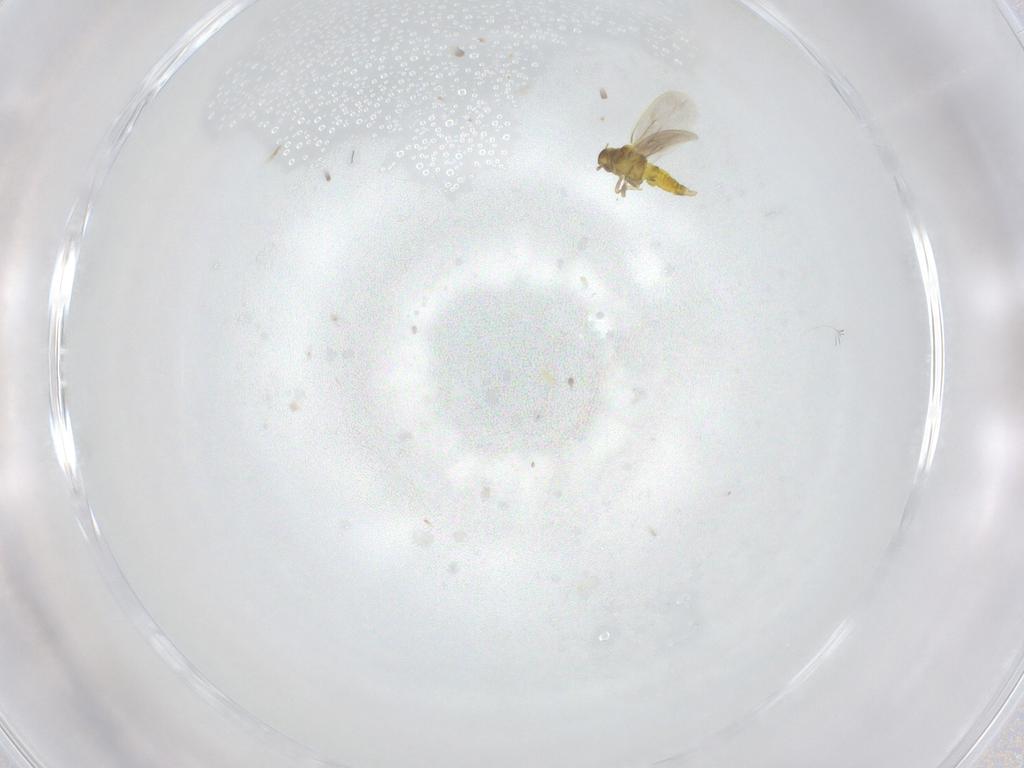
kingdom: Animalia
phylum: Arthropoda
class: Insecta
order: Hemiptera
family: Aleyrodidae
